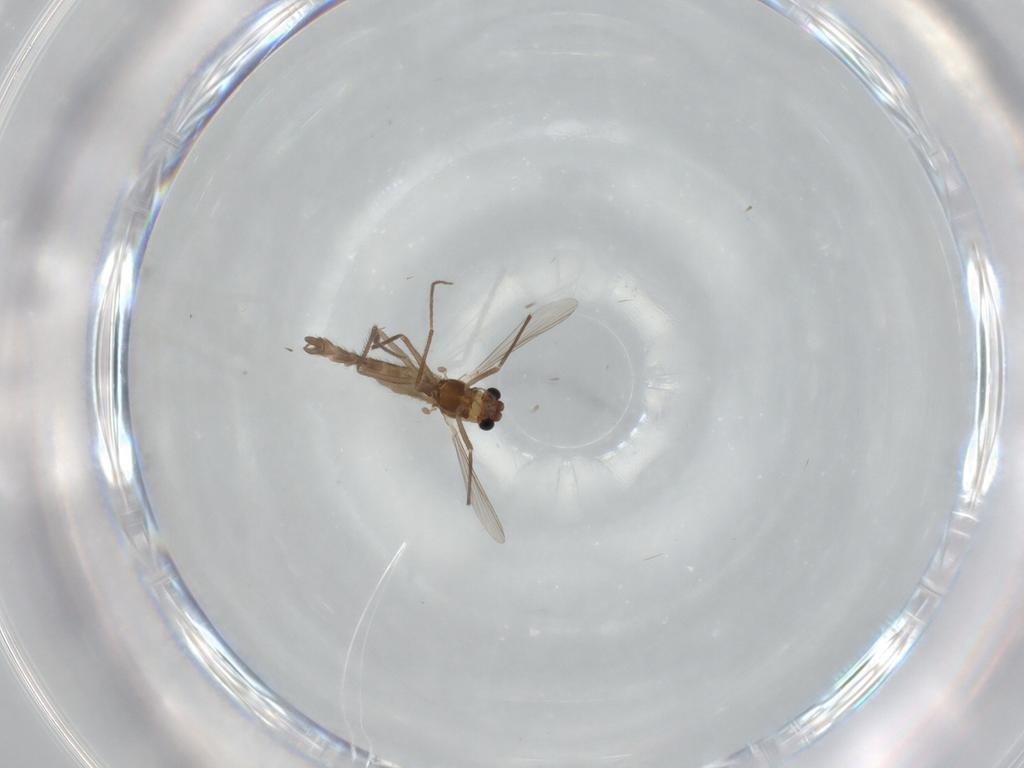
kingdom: Animalia
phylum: Arthropoda
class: Insecta
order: Diptera
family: Chironomidae
